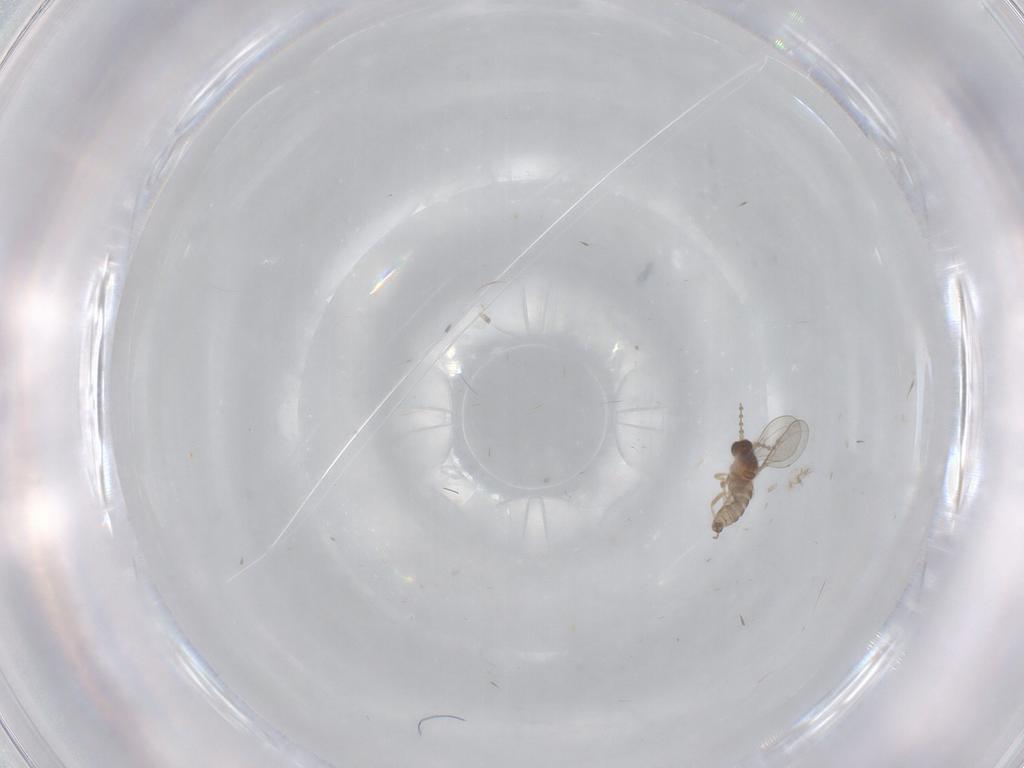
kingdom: Animalia
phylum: Arthropoda
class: Insecta
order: Diptera
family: Cecidomyiidae
